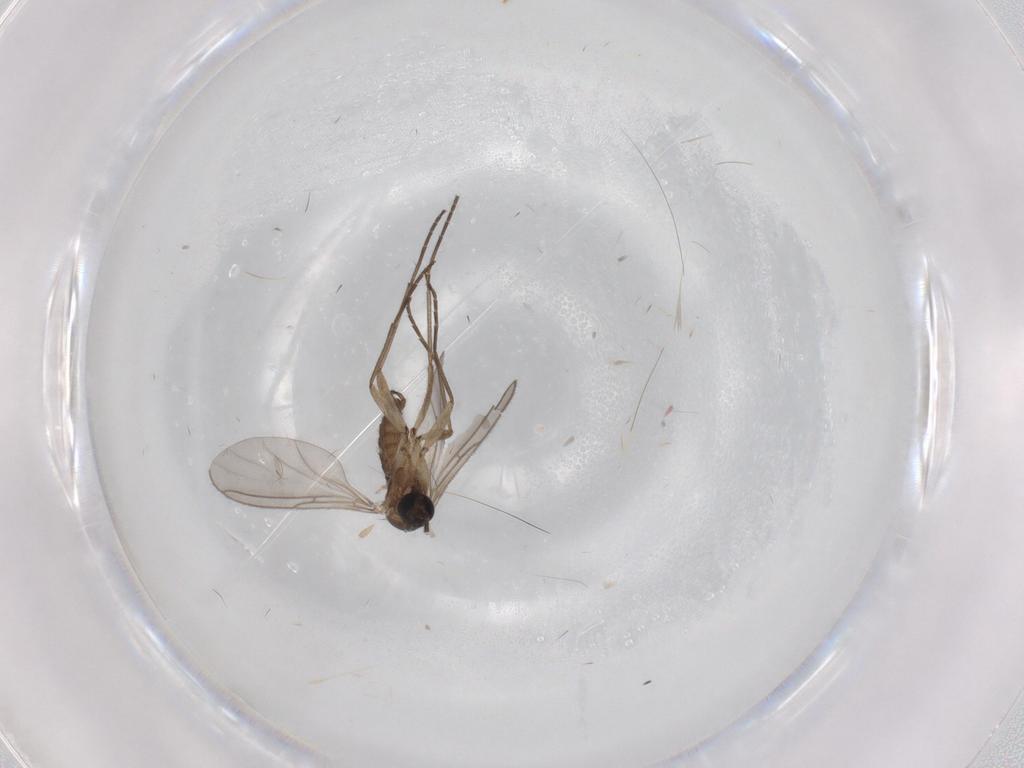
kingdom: Animalia
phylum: Arthropoda
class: Insecta
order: Diptera
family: Sciaridae
